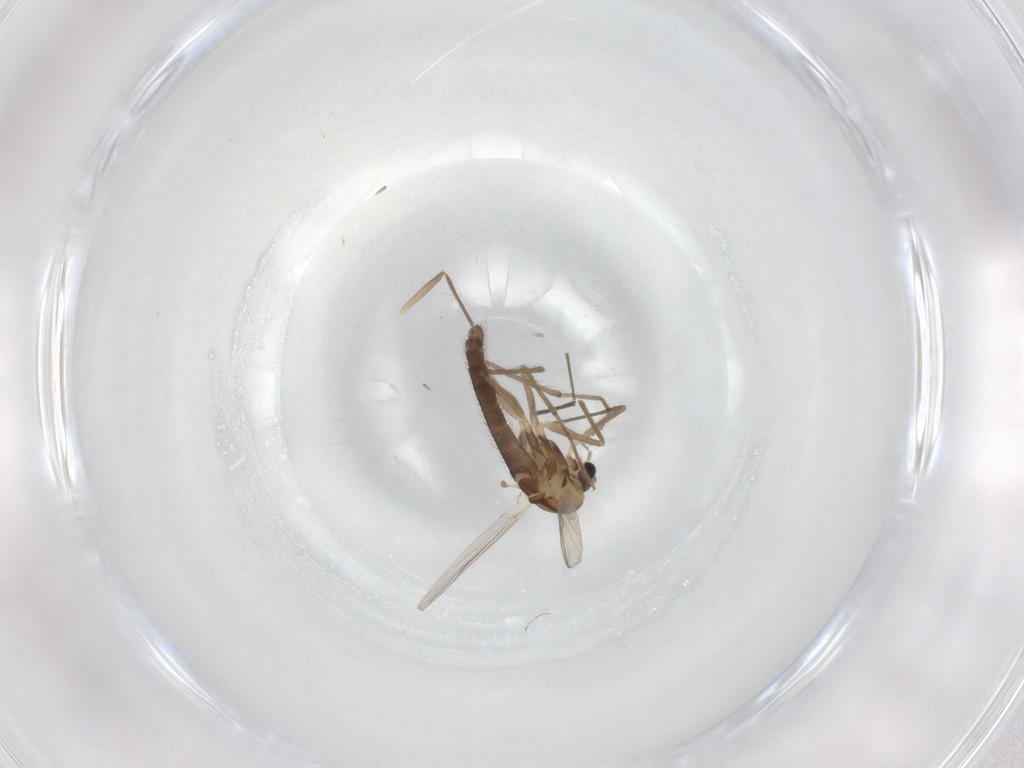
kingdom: Animalia
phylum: Arthropoda
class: Insecta
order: Diptera
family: Chironomidae
